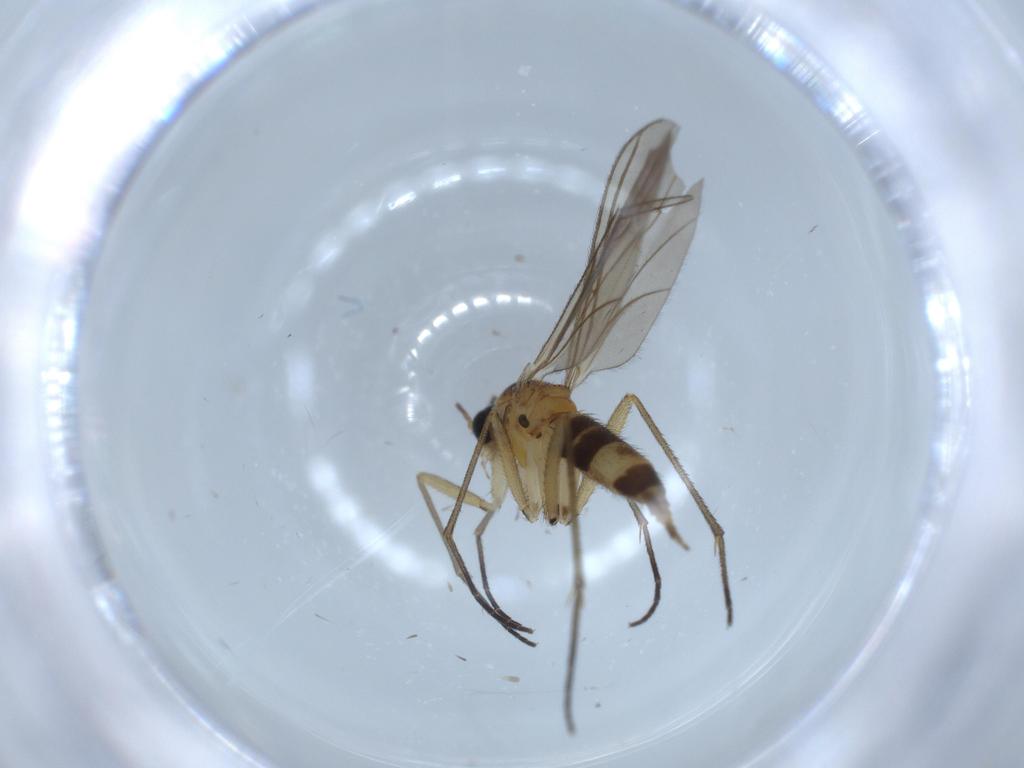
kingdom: Animalia
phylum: Arthropoda
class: Insecta
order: Diptera
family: Sciaridae
